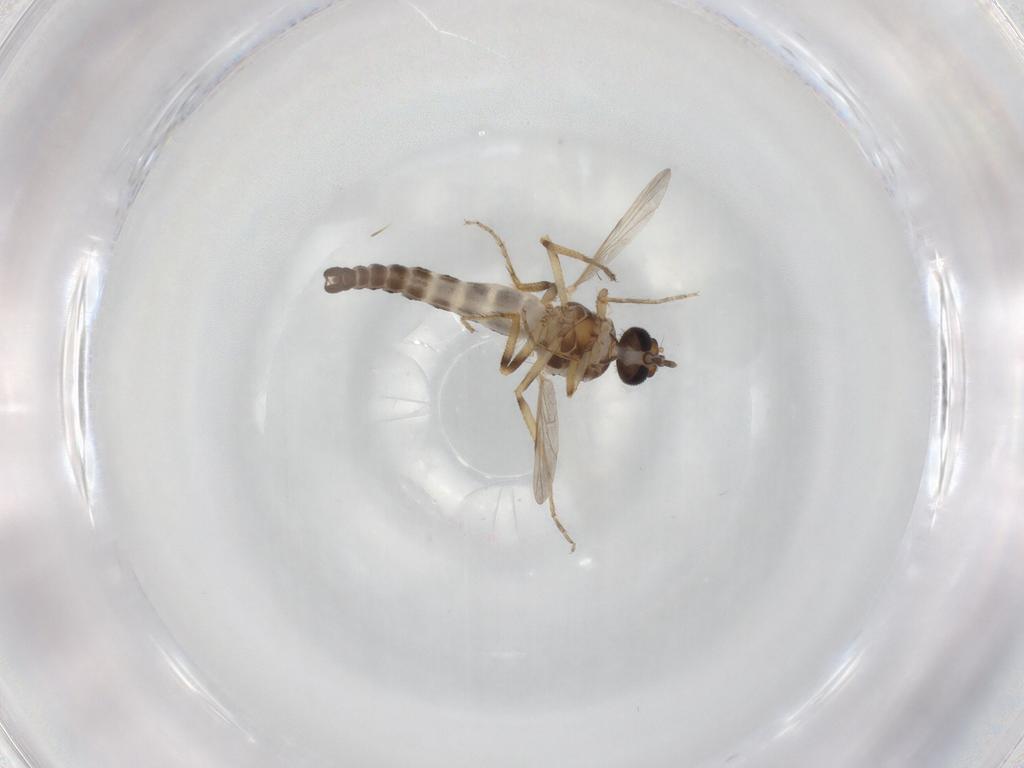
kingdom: Animalia
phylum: Arthropoda
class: Insecta
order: Diptera
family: Ceratopogonidae
